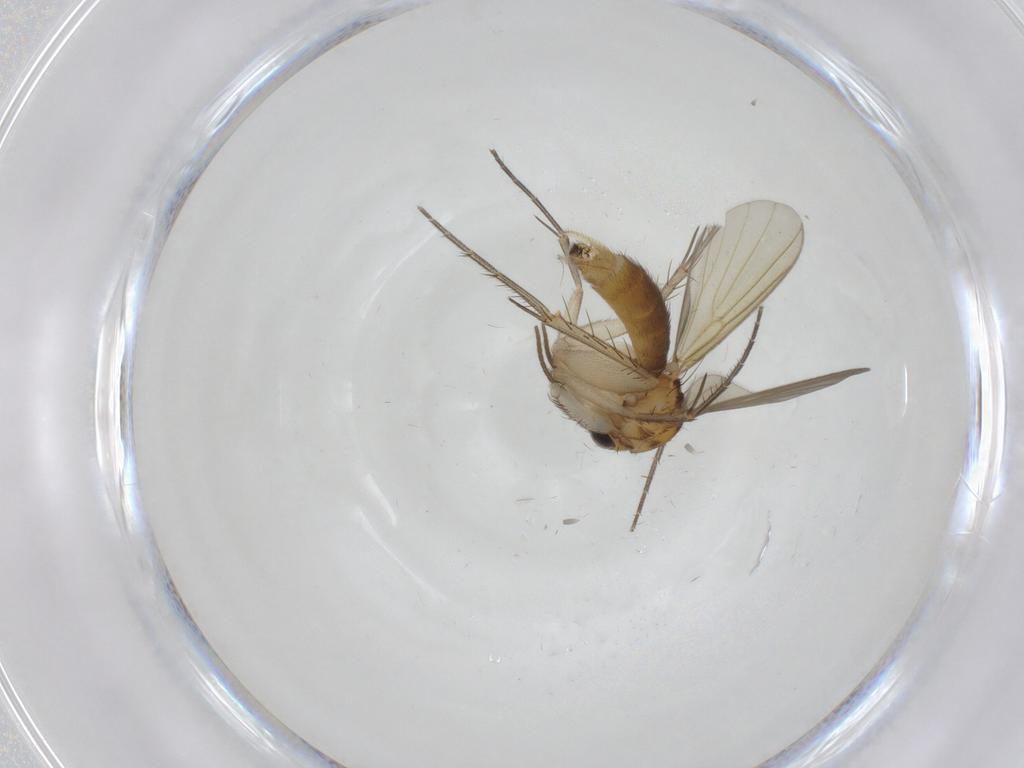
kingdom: Animalia
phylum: Arthropoda
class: Insecta
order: Diptera
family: Mycetophilidae
